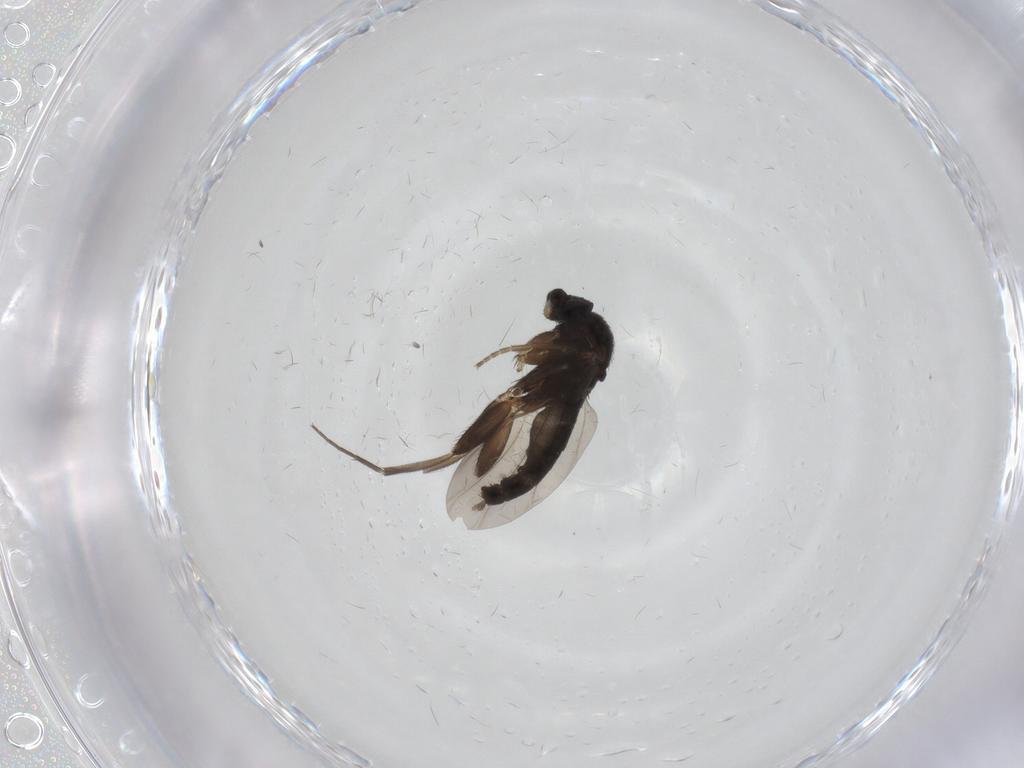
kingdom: Animalia
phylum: Arthropoda
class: Insecta
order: Diptera
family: Phoridae
